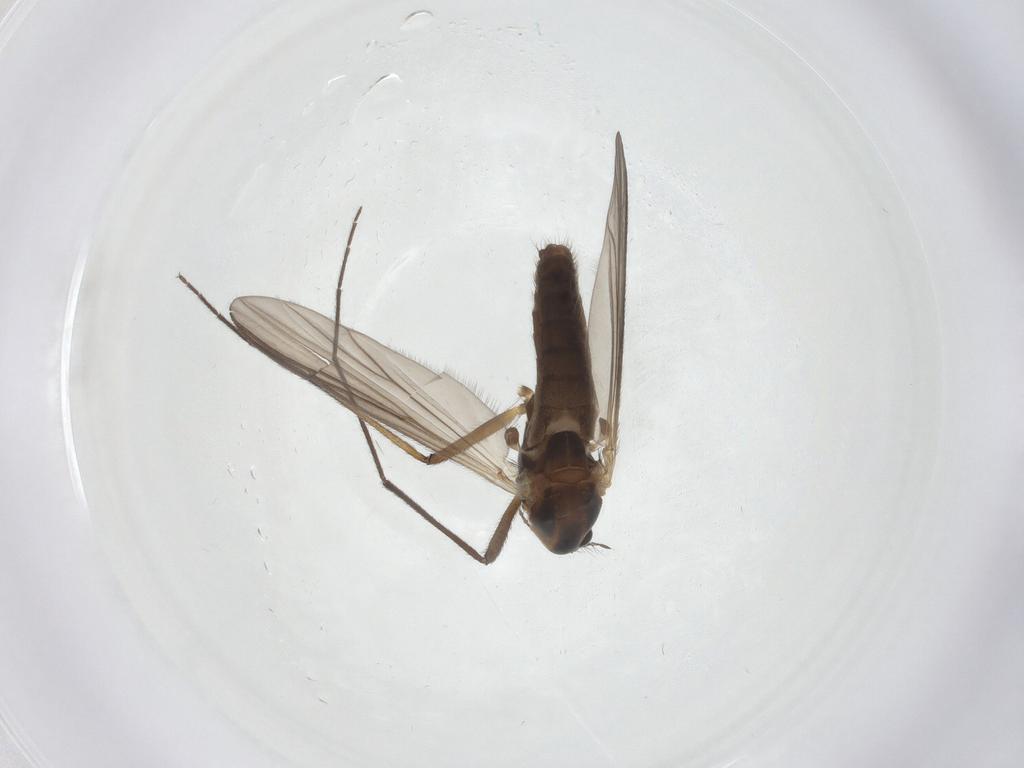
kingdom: Animalia
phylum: Arthropoda
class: Insecta
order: Diptera
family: Chironomidae
